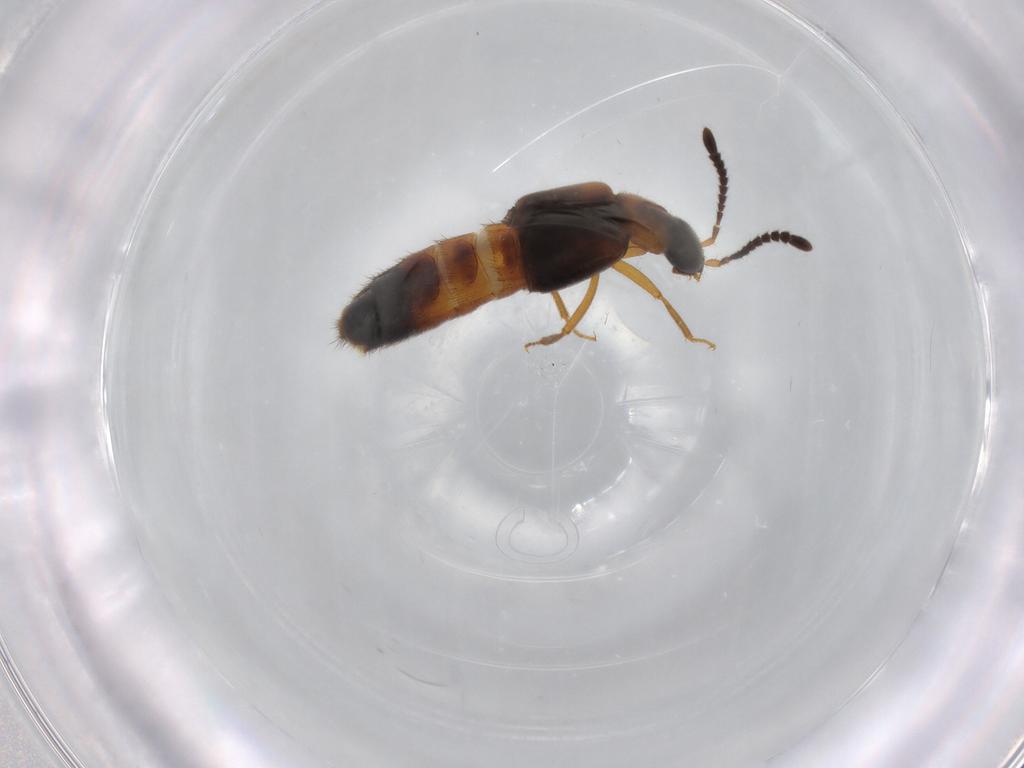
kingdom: Animalia
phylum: Arthropoda
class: Insecta
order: Coleoptera
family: Staphylinidae
